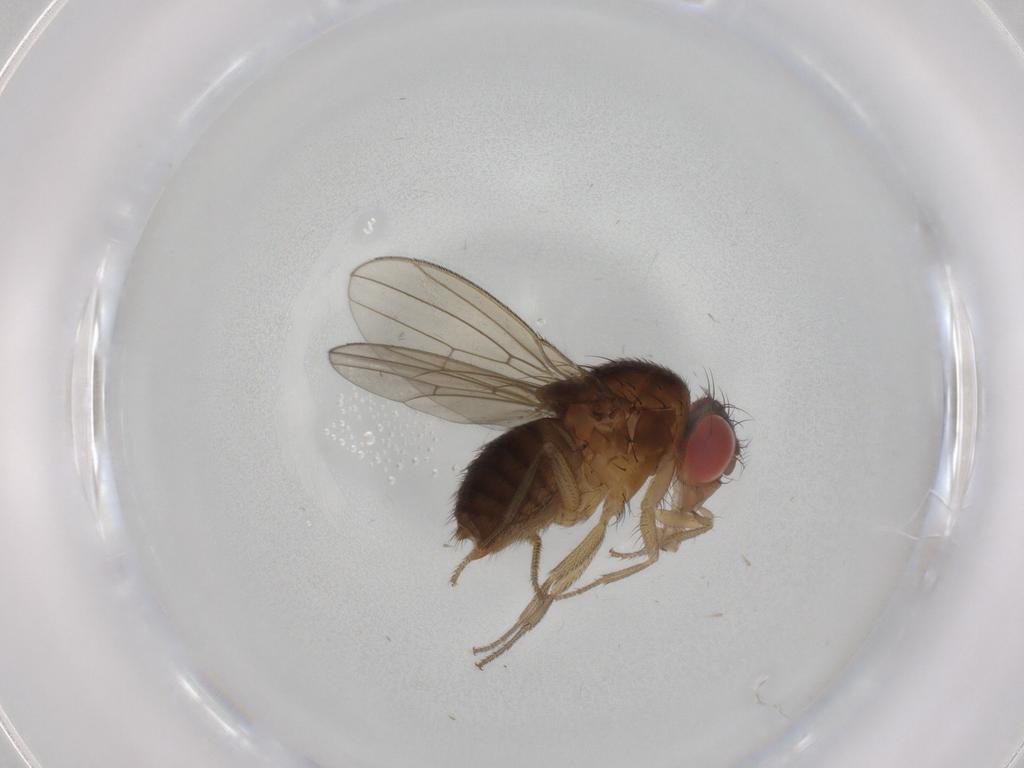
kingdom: Animalia
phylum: Arthropoda
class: Insecta
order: Diptera
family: Drosophilidae
